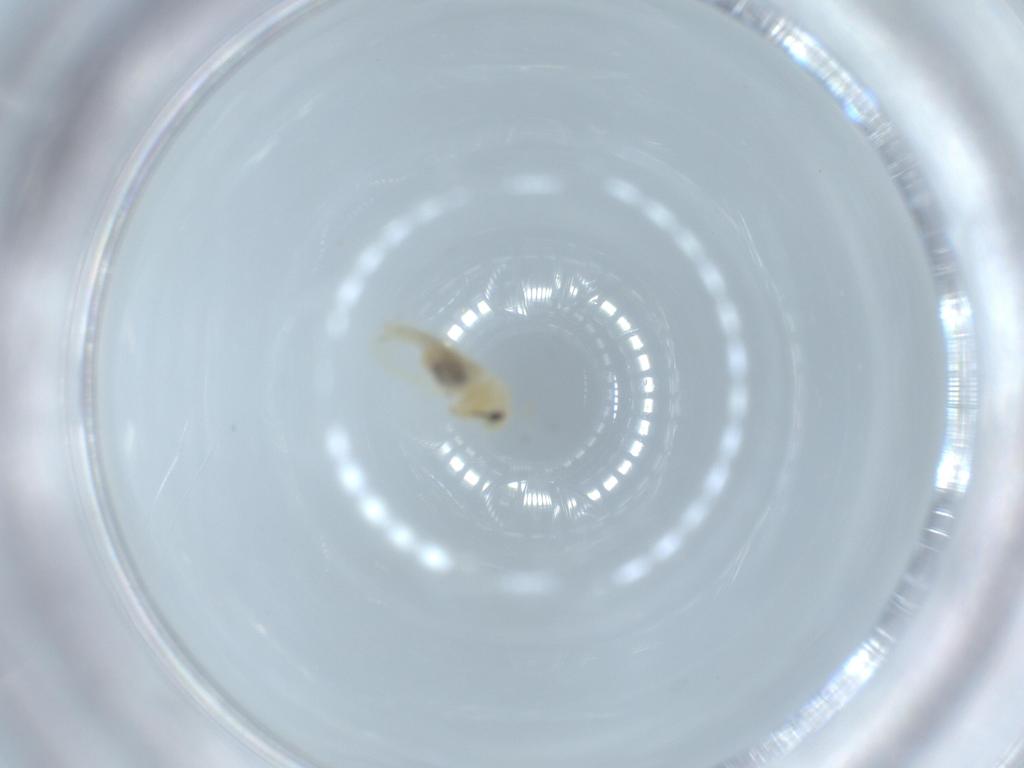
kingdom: Animalia
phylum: Arthropoda
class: Insecta
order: Hemiptera
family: Aleyrodidae
